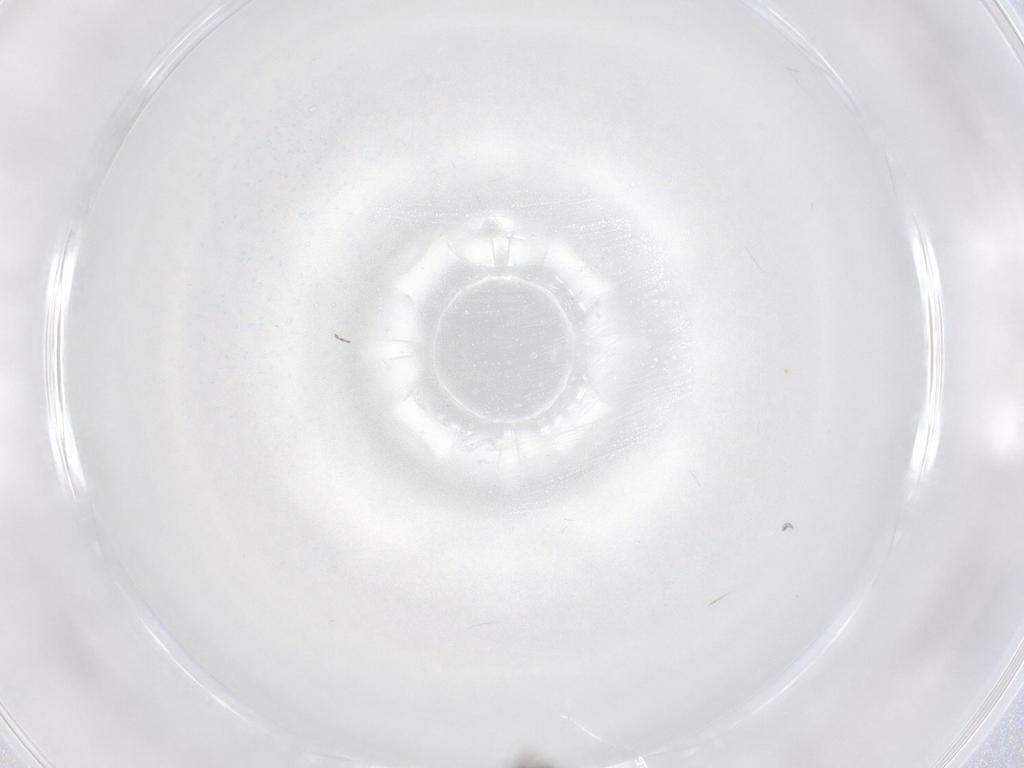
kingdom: Animalia
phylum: Arthropoda
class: Insecta
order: Diptera
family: Cecidomyiidae
